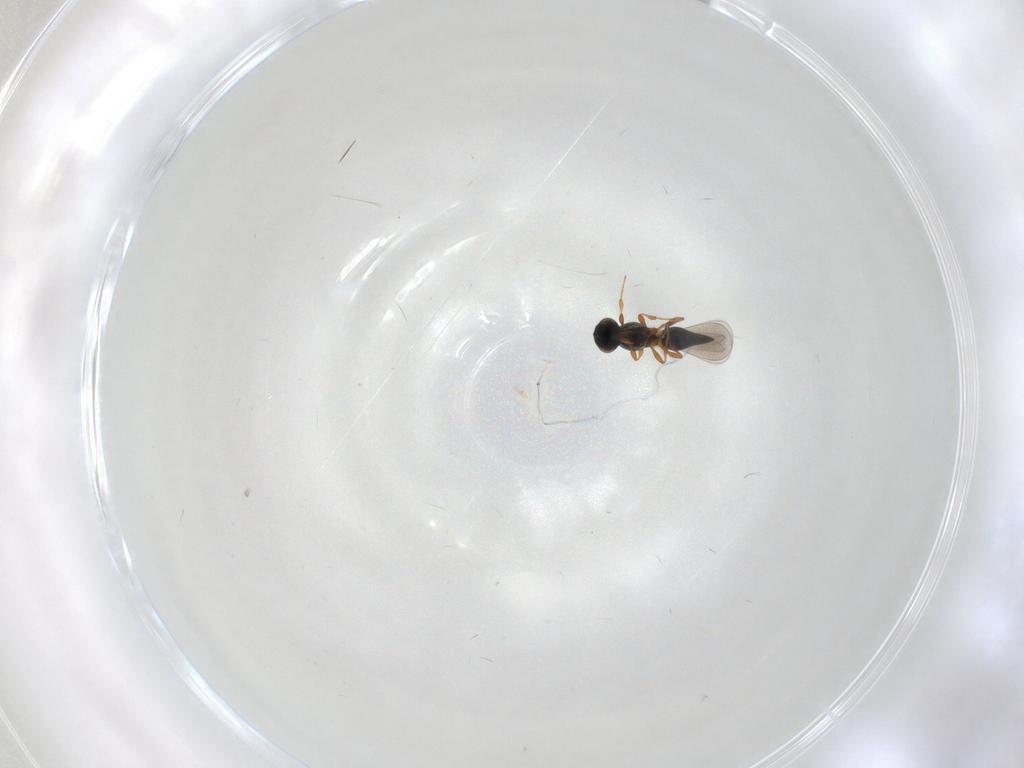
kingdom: Animalia
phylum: Arthropoda
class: Insecta
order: Hymenoptera
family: Platygastridae
